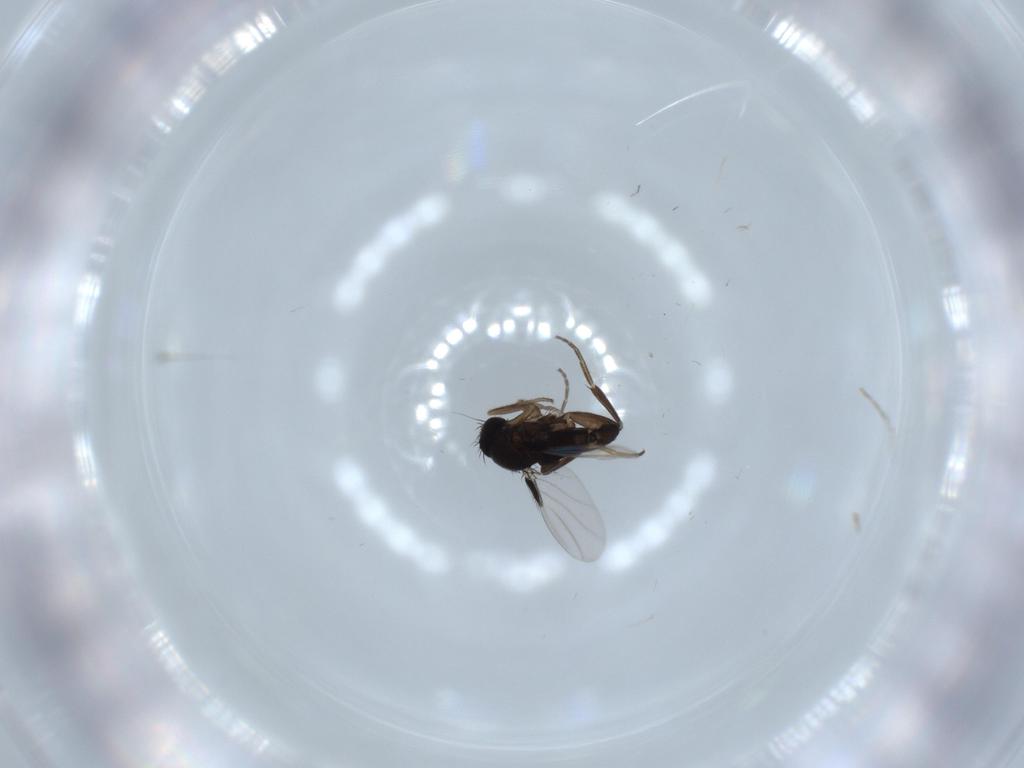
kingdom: Animalia
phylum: Arthropoda
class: Insecta
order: Diptera
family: Phoridae
